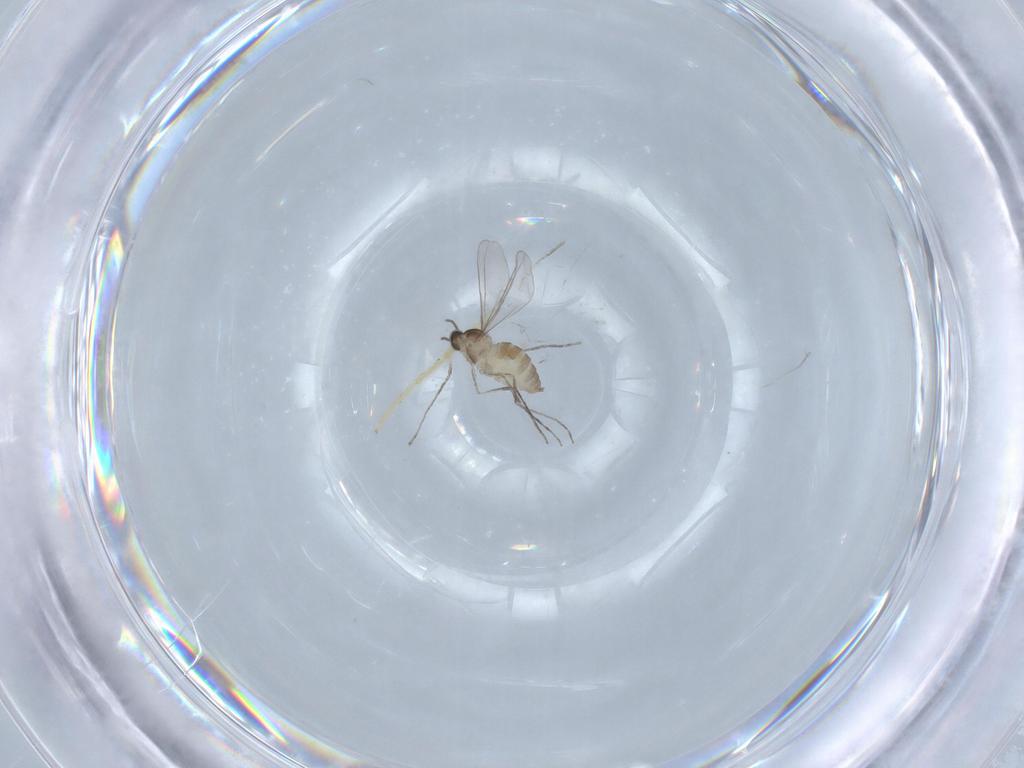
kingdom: Animalia
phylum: Arthropoda
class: Insecta
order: Diptera
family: Cecidomyiidae
